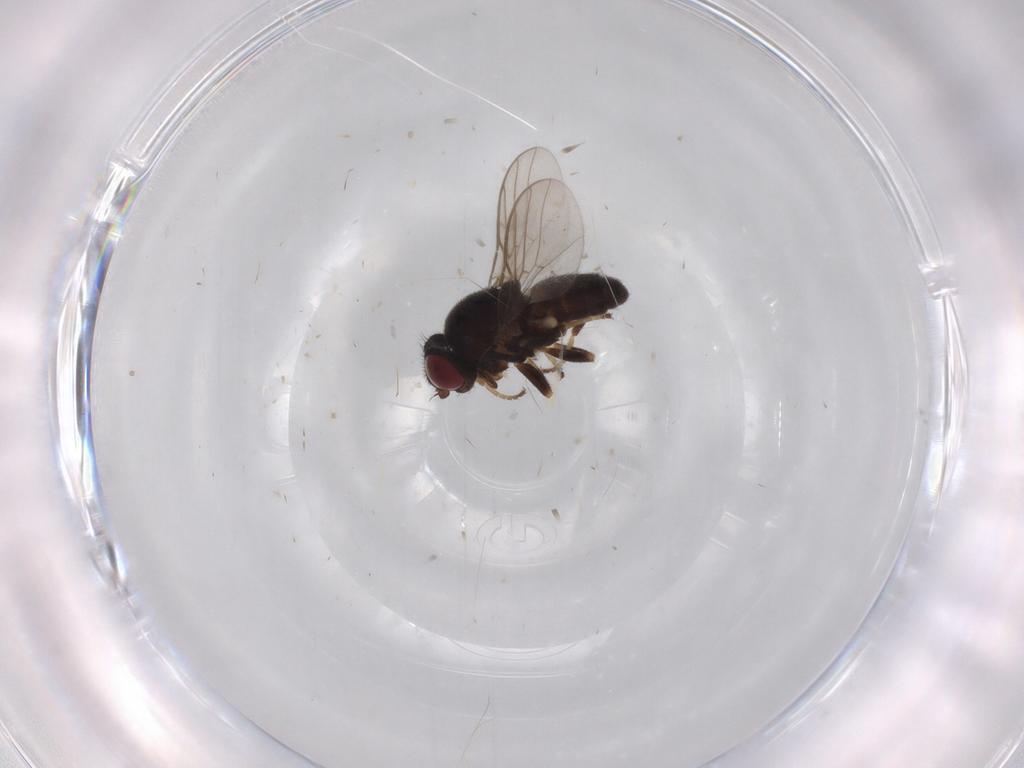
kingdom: Animalia
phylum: Arthropoda
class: Insecta
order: Diptera
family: Chloropidae
